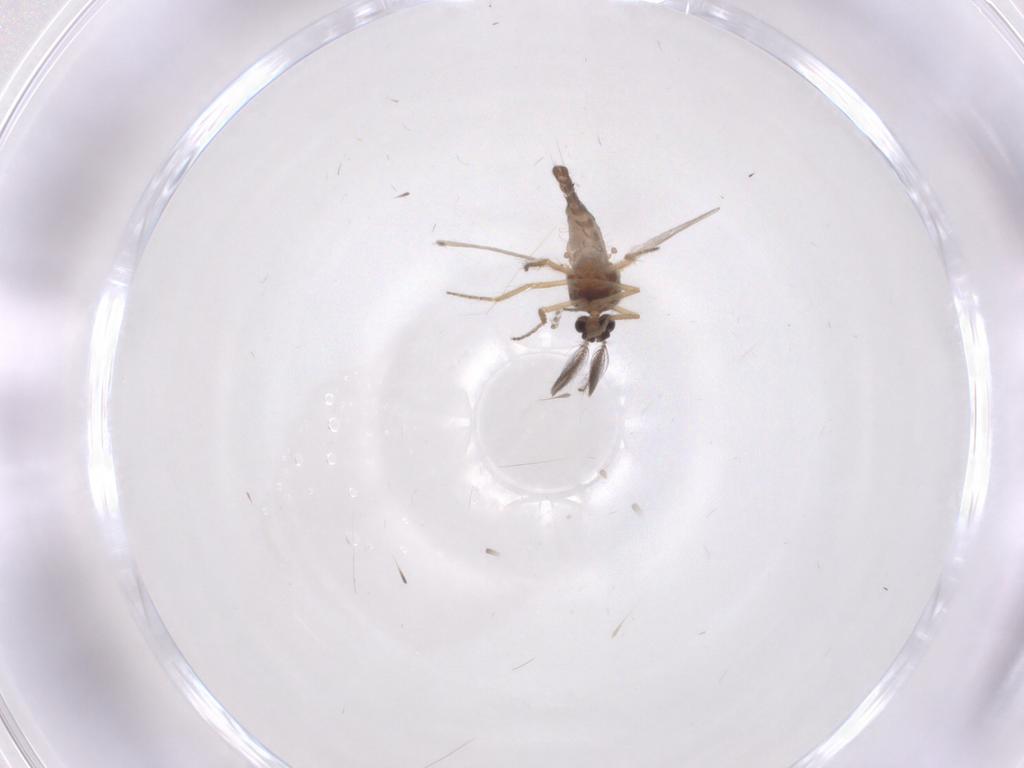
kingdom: Animalia
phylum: Arthropoda
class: Insecta
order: Diptera
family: Ceratopogonidae
